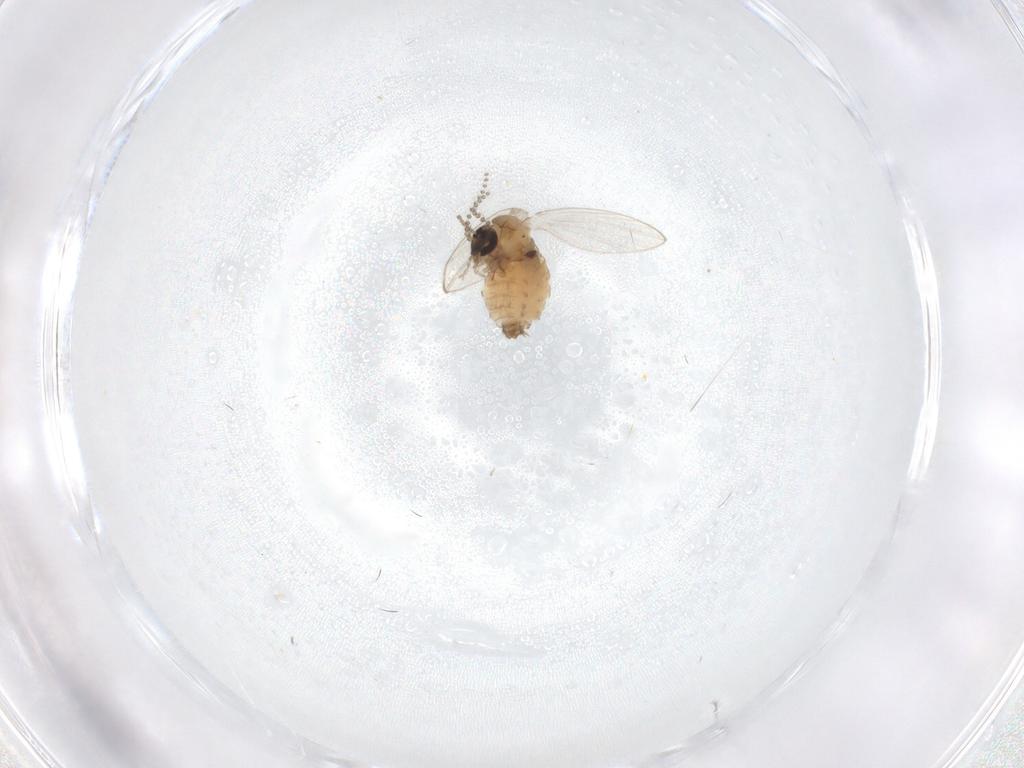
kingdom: Animalia
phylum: Arthropoda
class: Insecta
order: Diptera
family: Psychodidae
